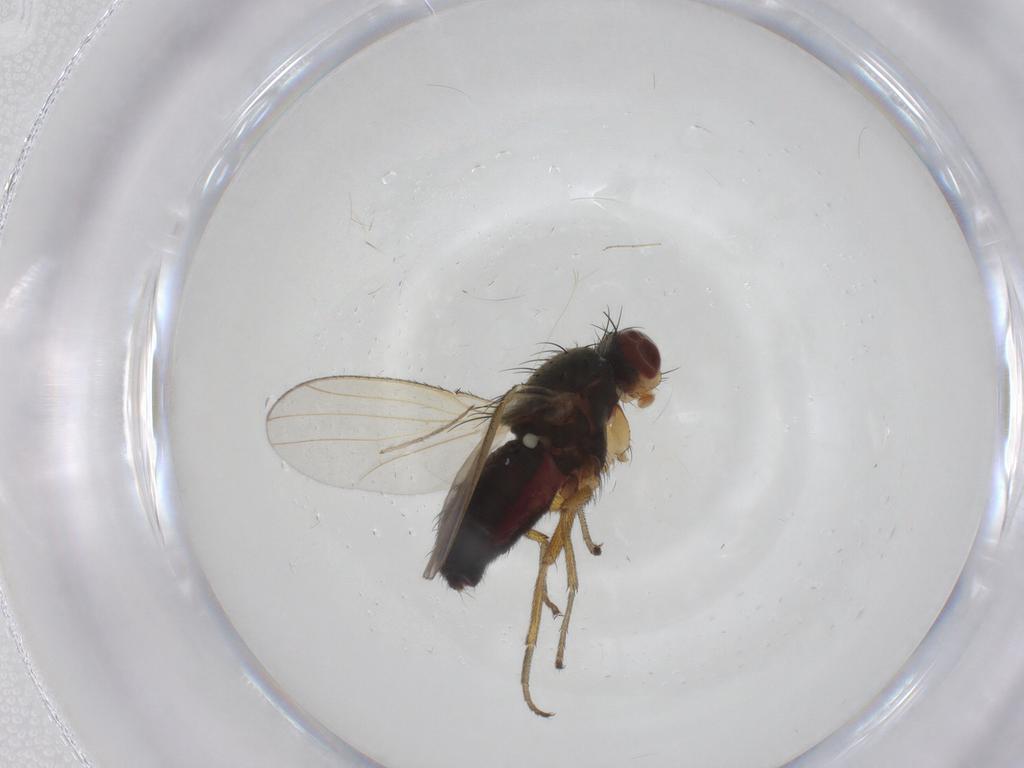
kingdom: Animalia
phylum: Arthropoda
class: Insecta
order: Diptera
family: Heleomyzidae
